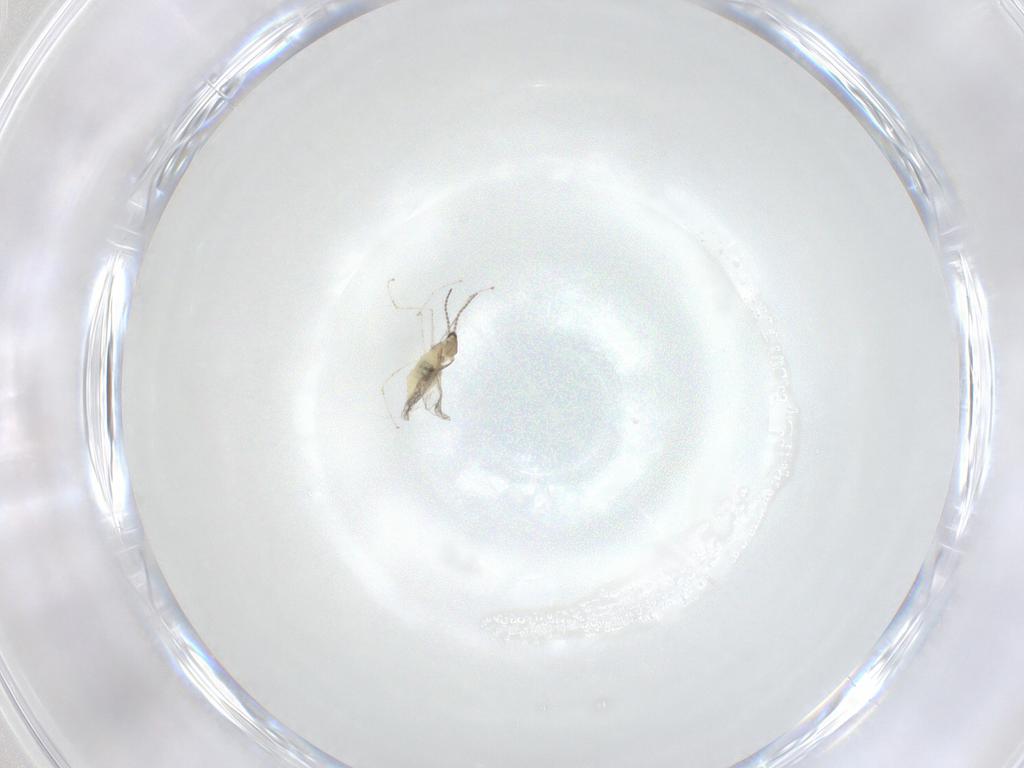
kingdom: Animalia
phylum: Arthropoda
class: Insecta
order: Diptera
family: Cecidomyiidae
